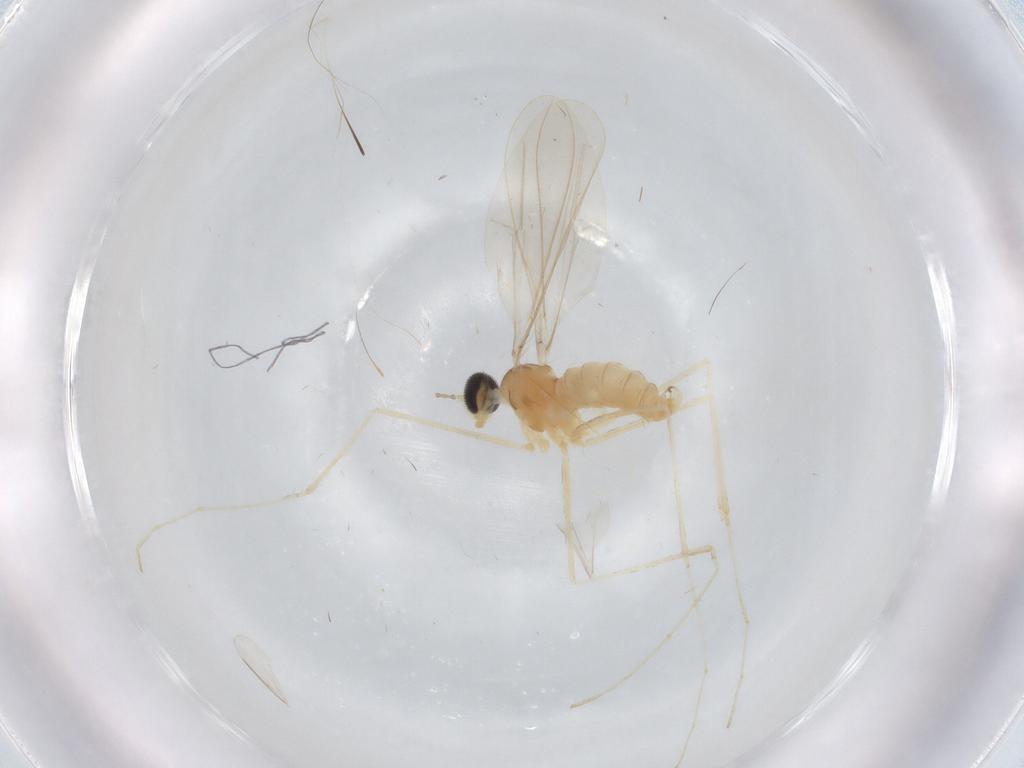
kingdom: Animalia
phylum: Arthropoda
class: Insecta
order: Diptera
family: Cecidomyiidae
